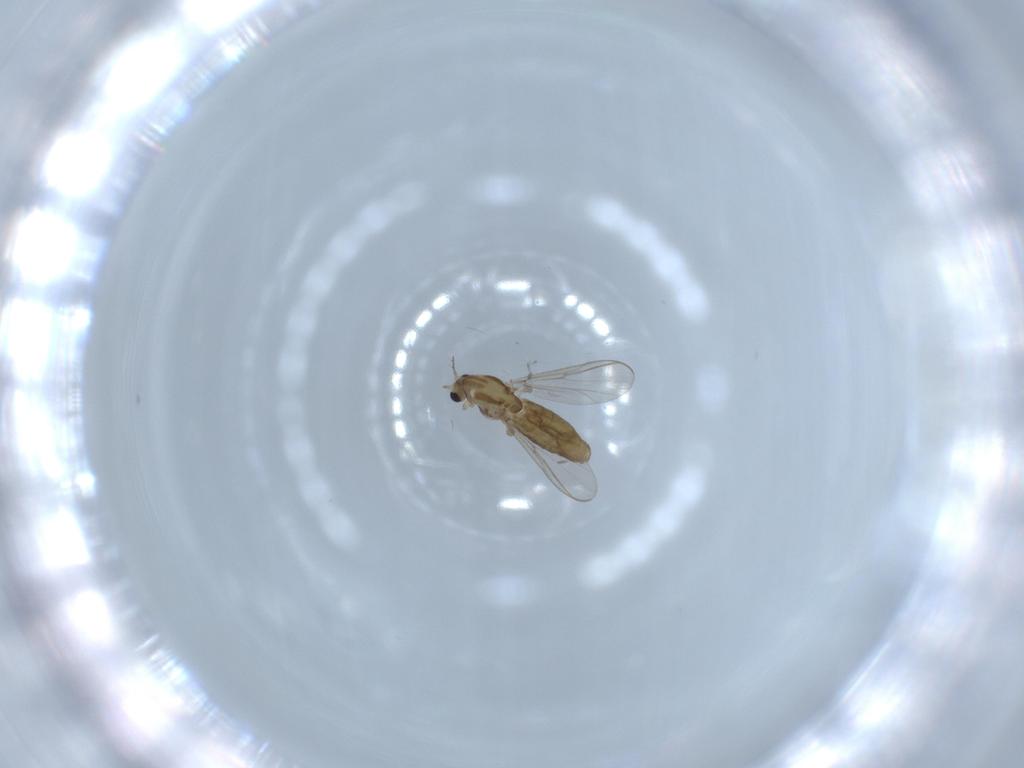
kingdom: Animalia
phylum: Arthropoda
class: Insecta
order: Diptera
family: Chironomidae
